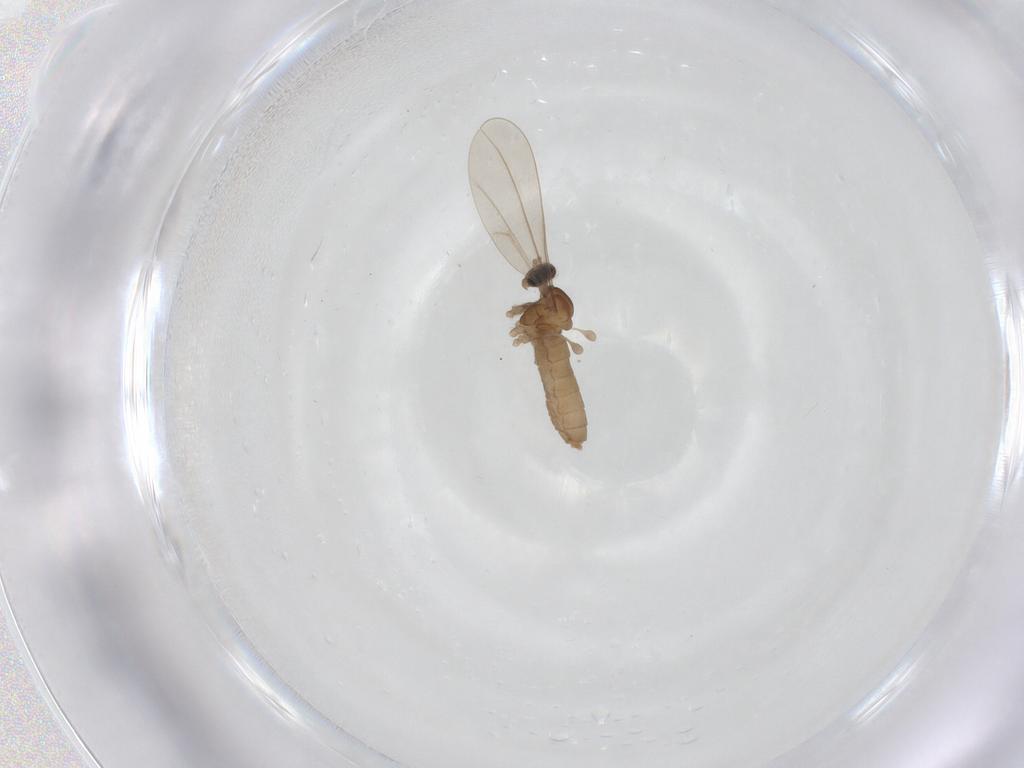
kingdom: Animalia
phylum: Arthropoda
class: Insecta
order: Diptera
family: Cecidomyiidae
